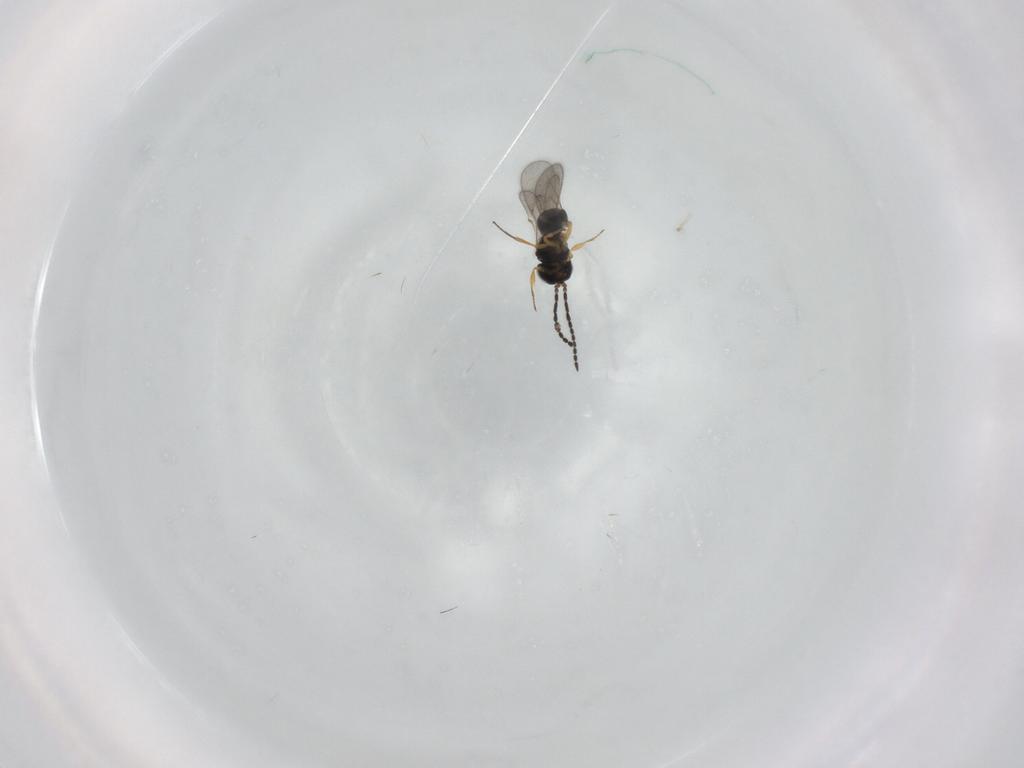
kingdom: Animalia
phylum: Arthropoda
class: Insecta
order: Hymenoptera
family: Scelionidae
